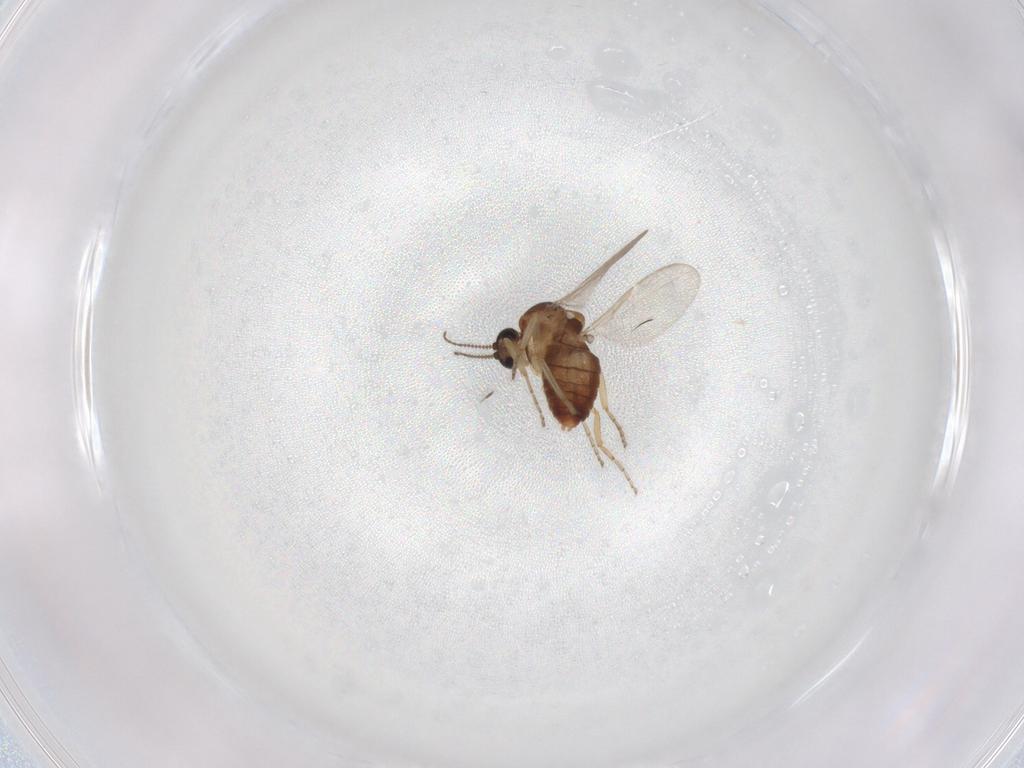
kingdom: Animalia
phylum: Arthropoda
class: Insecta
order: Diptera
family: Ceratopogonidae
